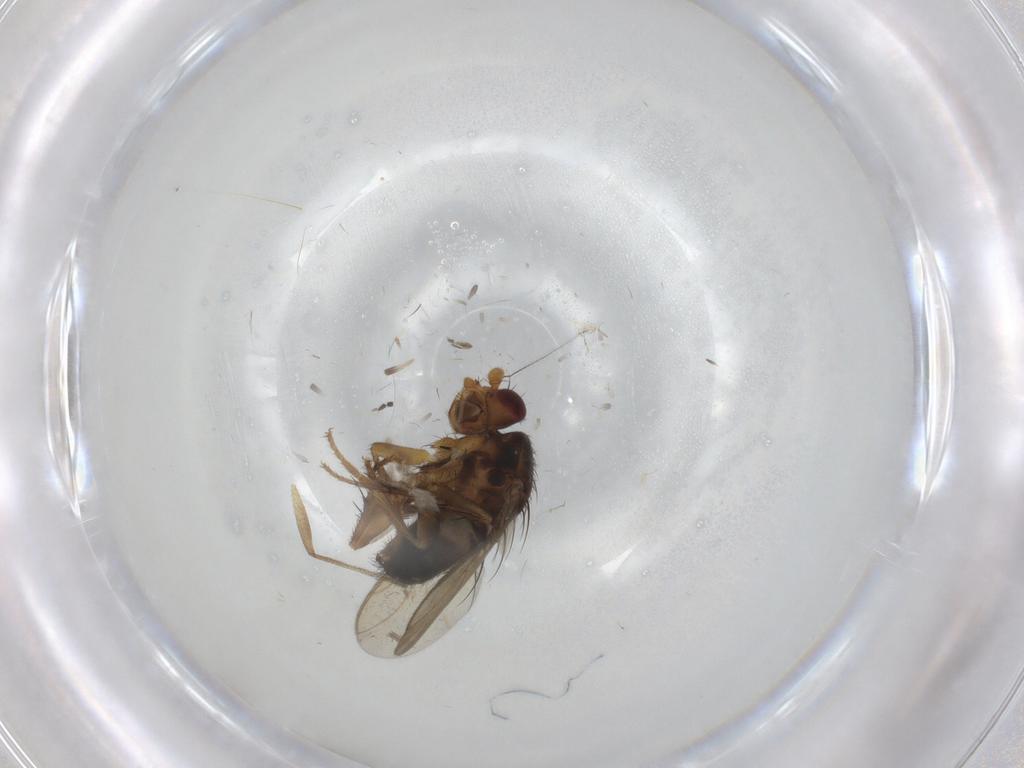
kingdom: Animalia
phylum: Arthropoda
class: Insecta
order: Diptera
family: Sphaeroceridae
